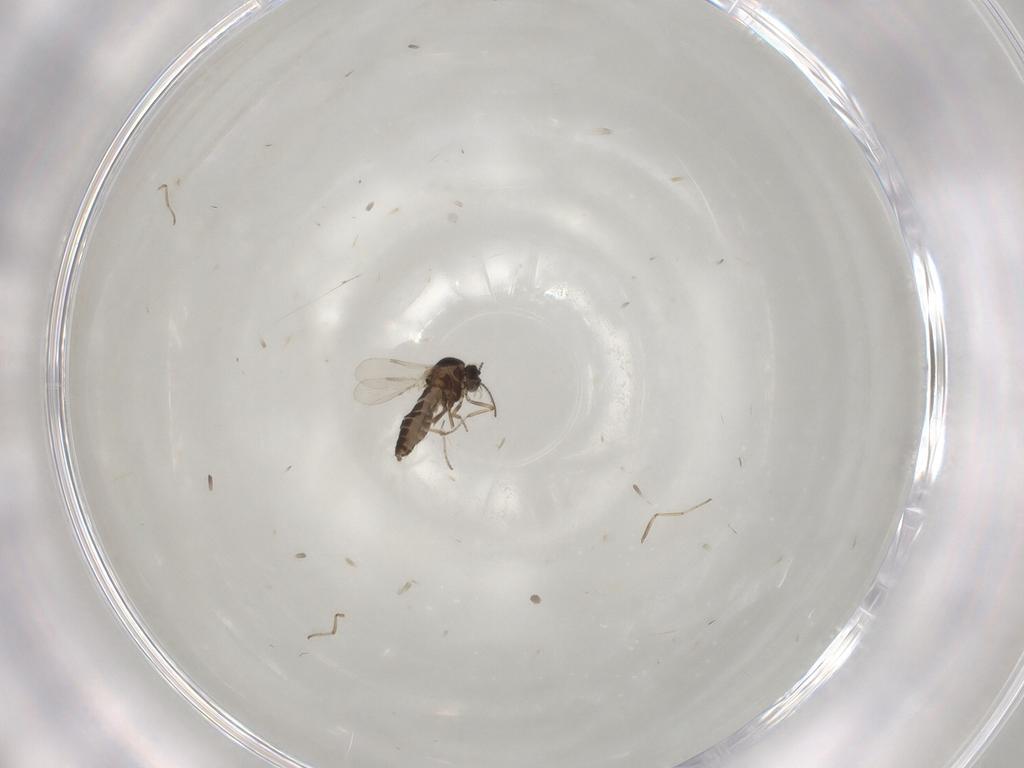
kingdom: Animalia
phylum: Arthropoda
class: Insecta
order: Diptera
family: Ceratopogonidae
